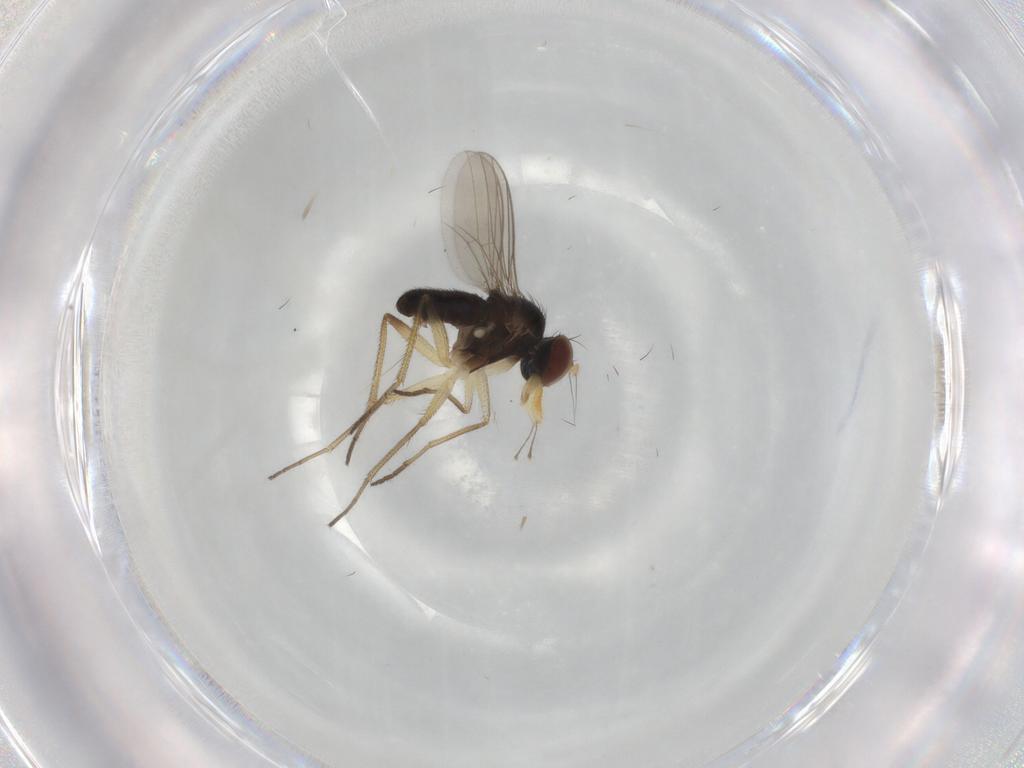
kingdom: Animalia
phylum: Arthropoda
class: Insecta
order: Diptera
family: Dolichopodidae
